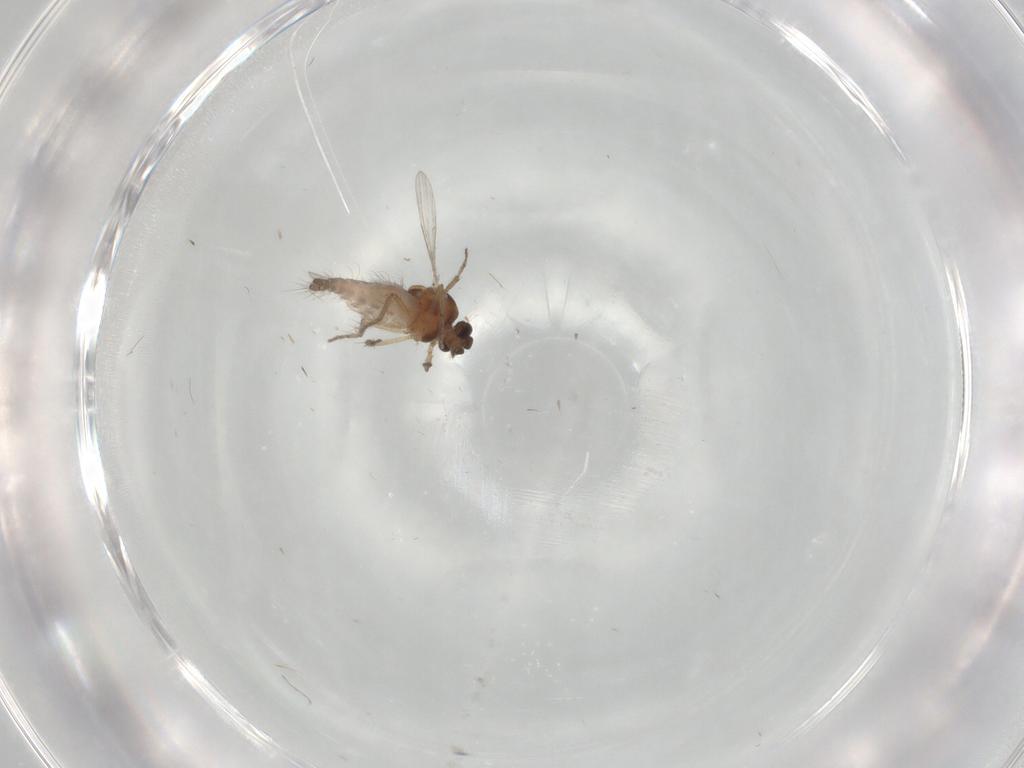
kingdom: Animalia
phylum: Arthropoda
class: Insecta
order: Diptera
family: Ceratopogonidae
